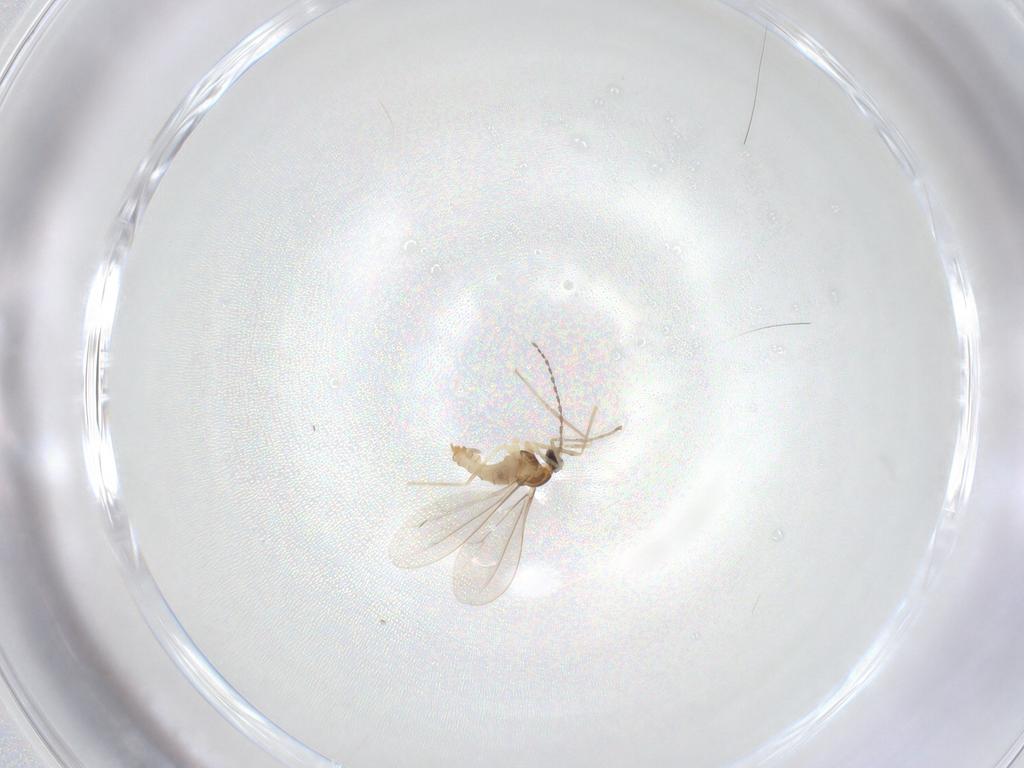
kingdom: Animalia
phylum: Arthropoda
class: Insecta
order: Diptera
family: Cecidomyiidae
